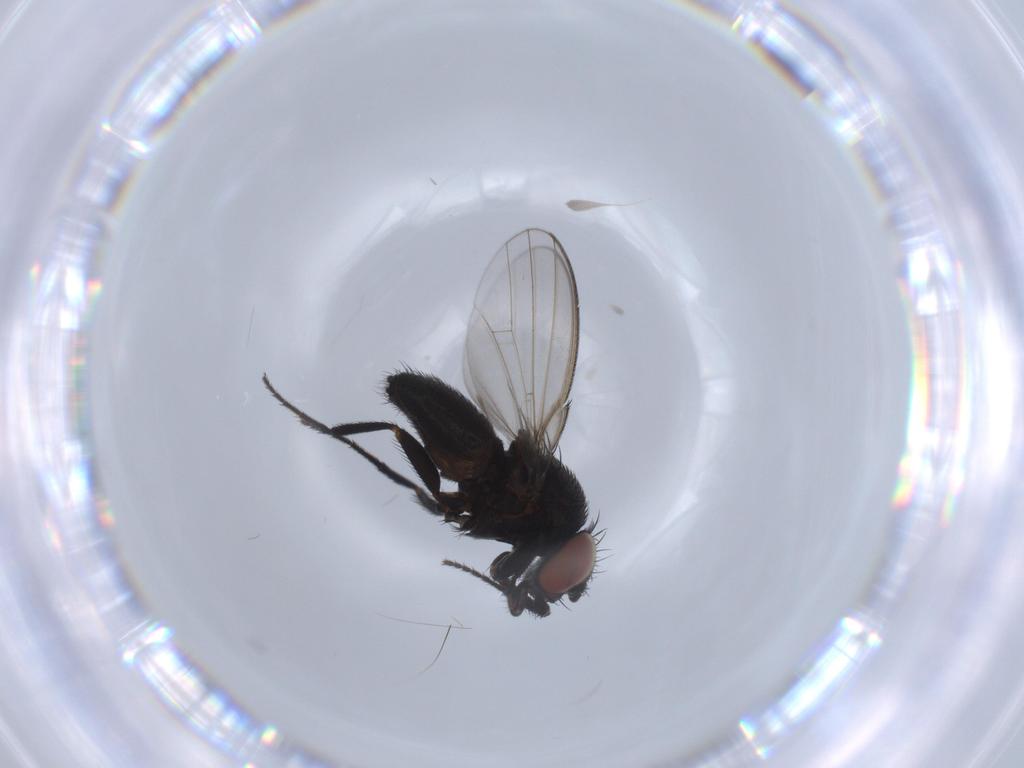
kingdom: Animalia
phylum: Arthropoda
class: Insecta
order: Diptera
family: Milichiidae
